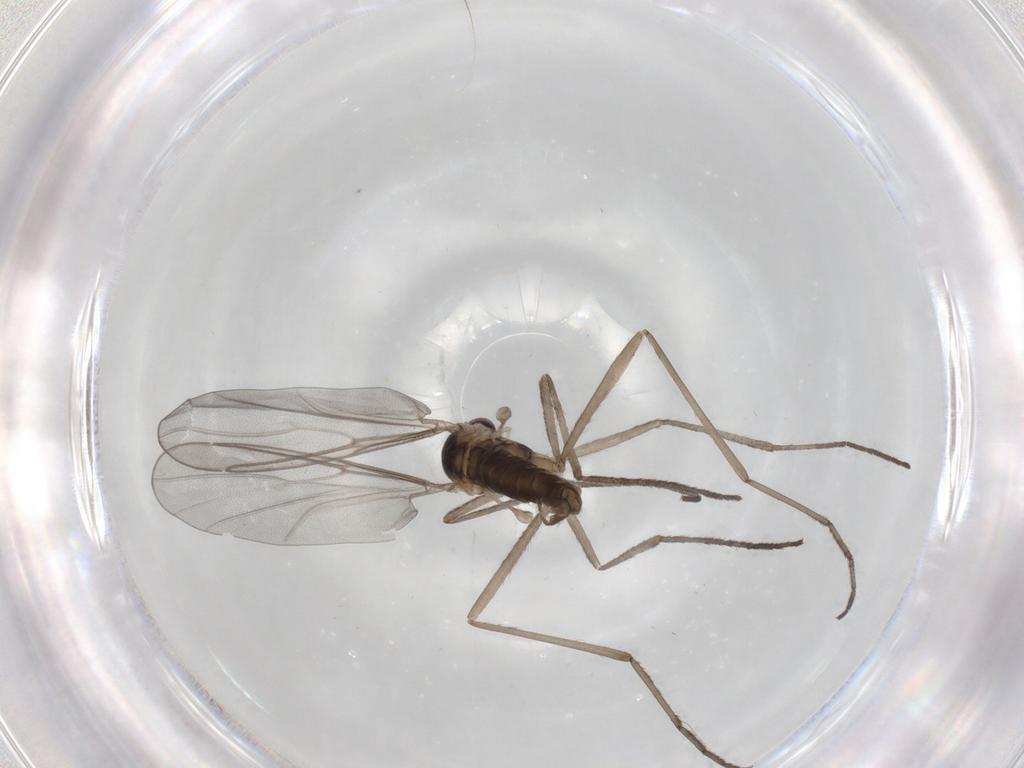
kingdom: Animalia
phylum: Arthropoda
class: Insecta
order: Diptera
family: Cecidomyiidae
